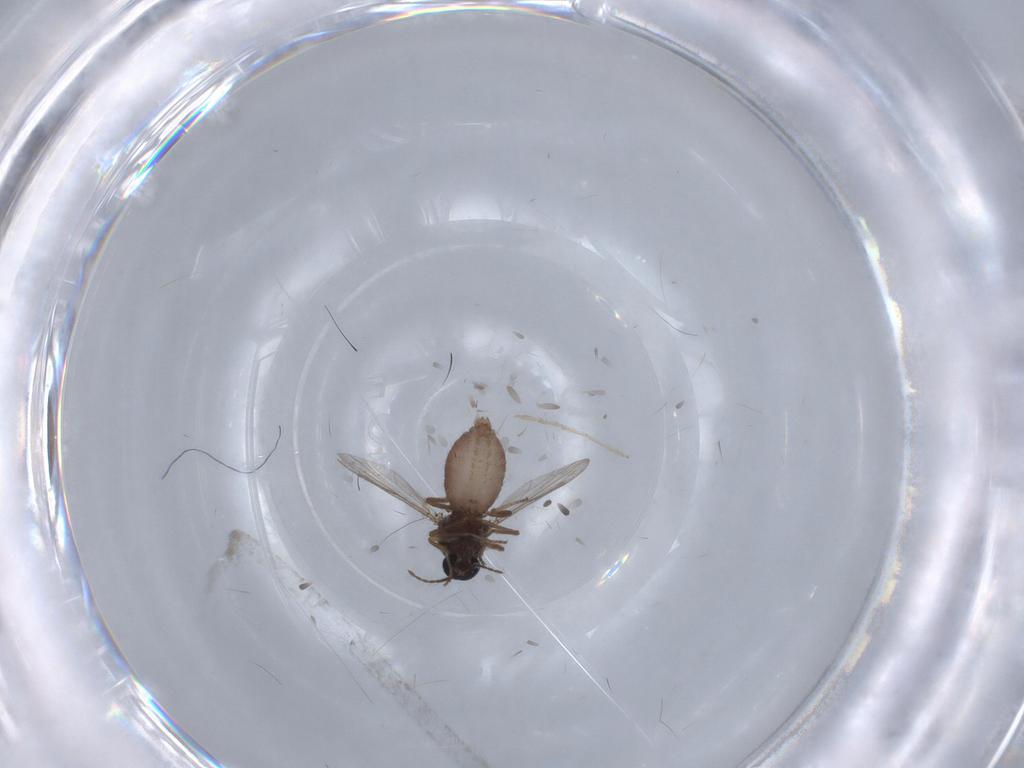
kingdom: Animalia
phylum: Arthropoda
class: Insecta
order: Diptera
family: Ceratopogonidae
